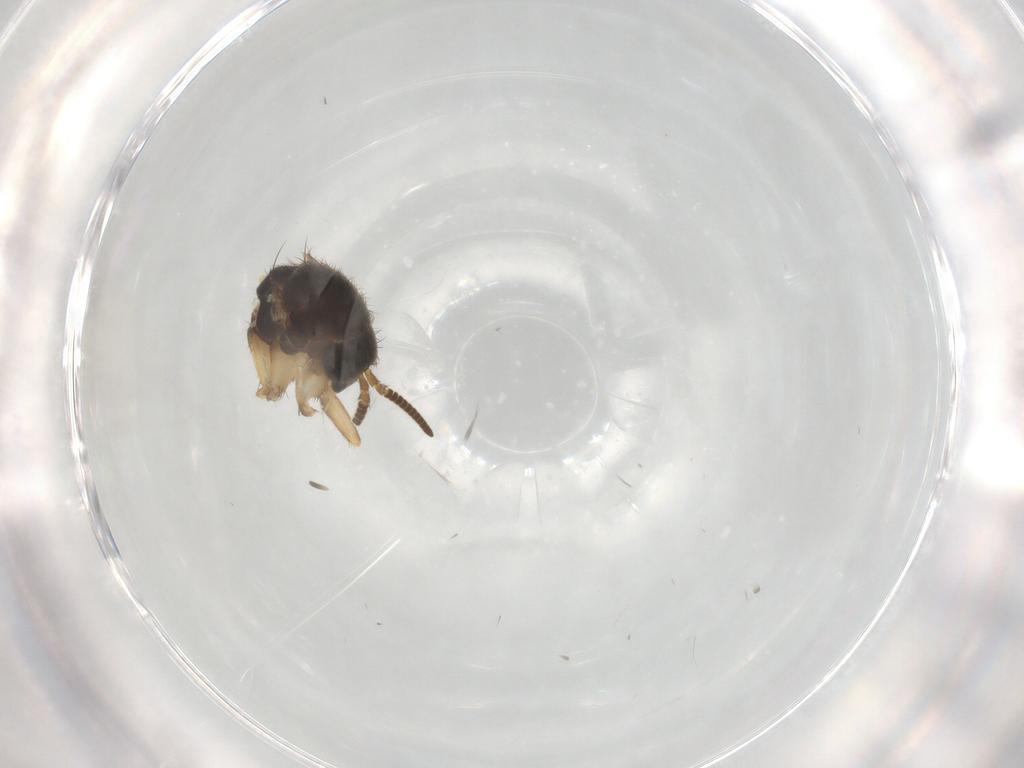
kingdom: Animalia
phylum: Arthropoda
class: Insecta
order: Diptera
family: Mycetophilidae
